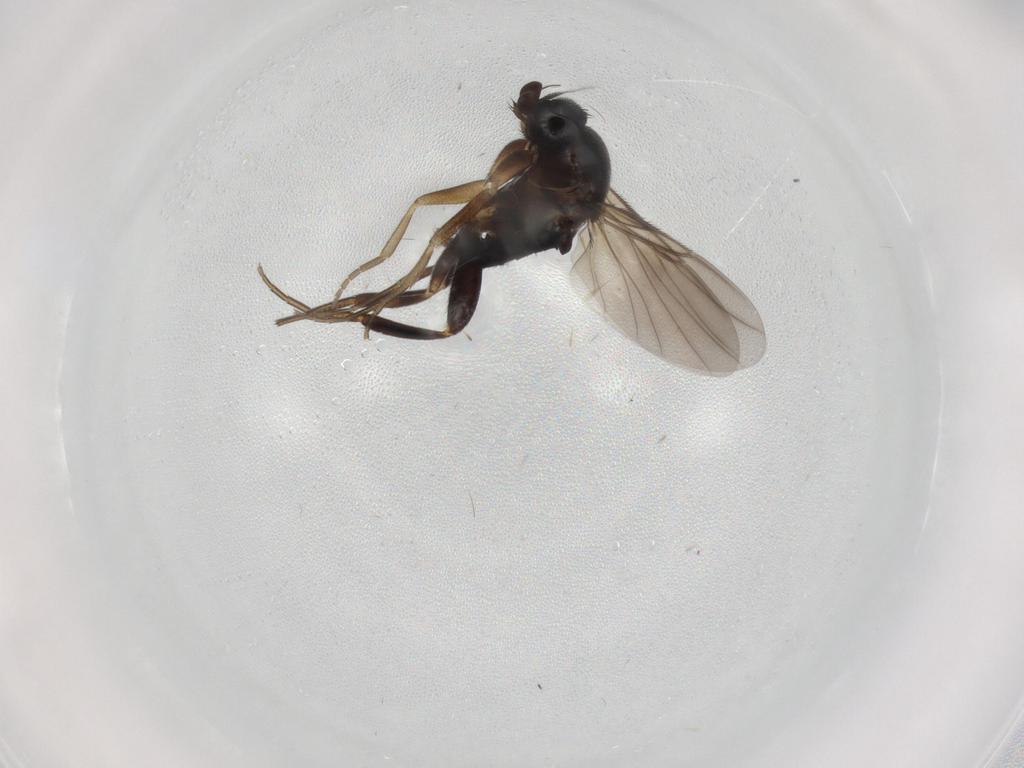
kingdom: Animalia
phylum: Arthropoda
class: Insecta
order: Diptera
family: Phoridae
